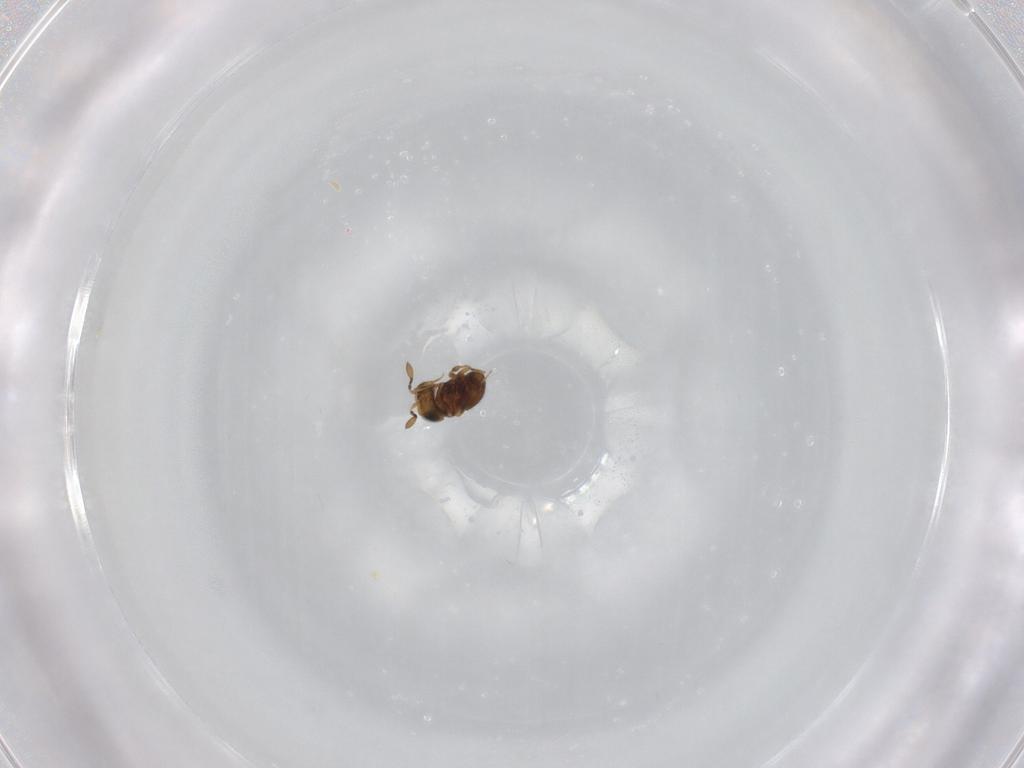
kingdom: Animalia
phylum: Arthropoda
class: Insecta
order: Hymenoptera
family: Scelionidae
